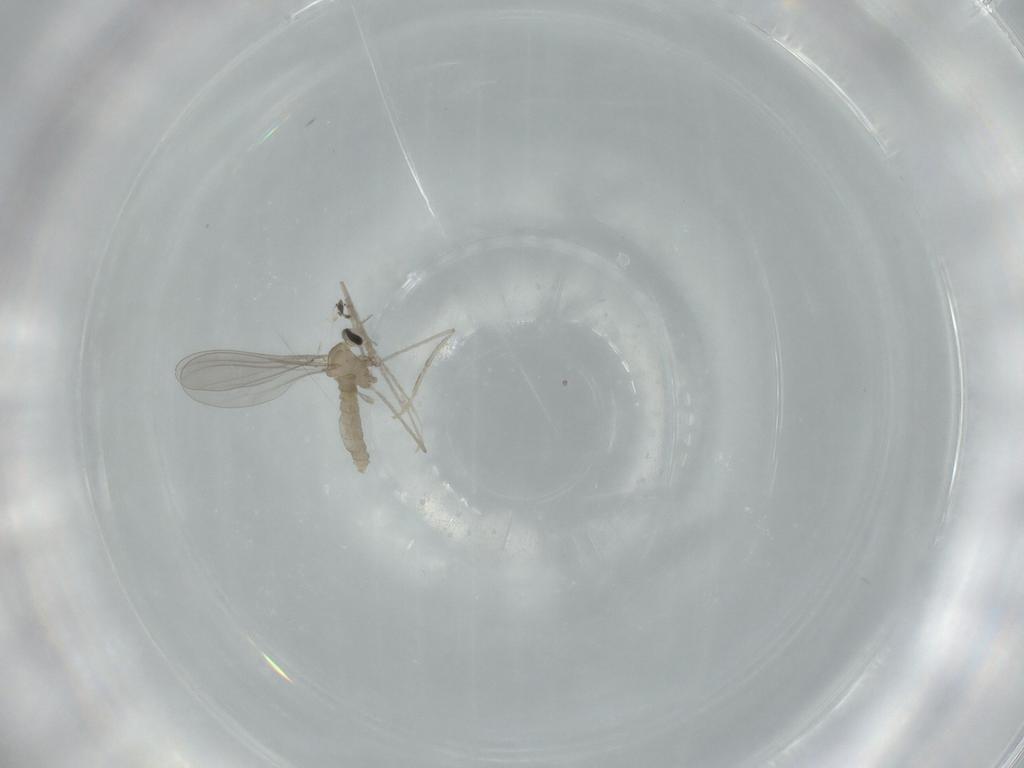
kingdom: Animalia
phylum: Arthropoda
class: Insecta
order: Diptera
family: Cecidomyiidae
